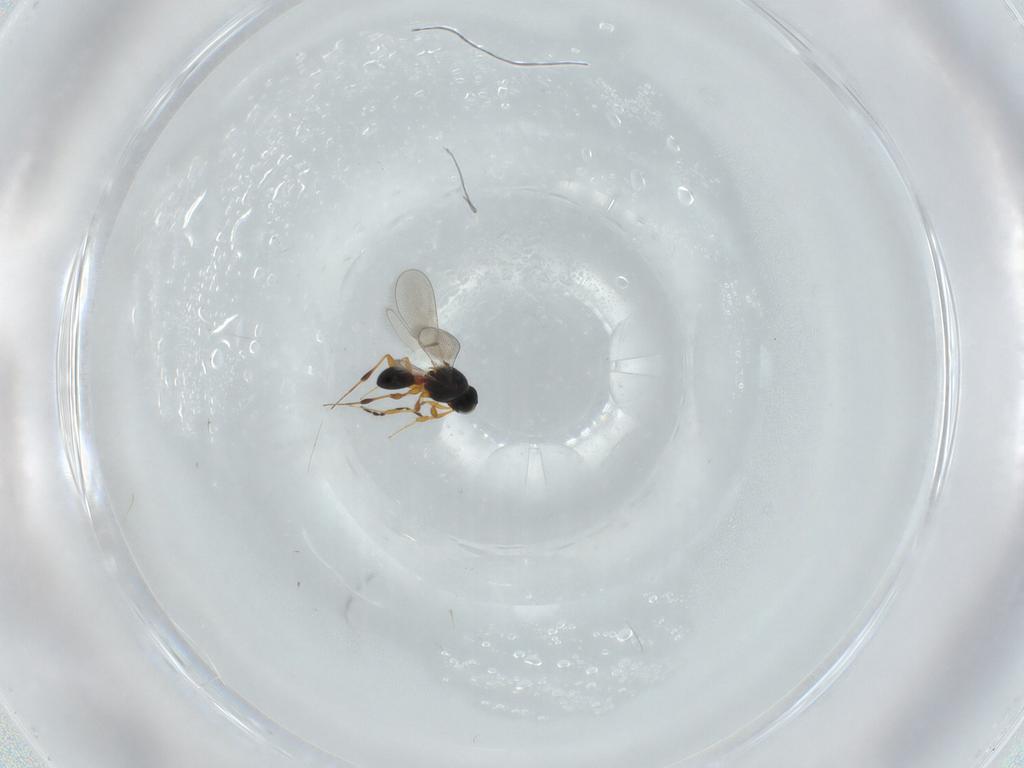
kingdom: Animalia
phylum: Arthropoda
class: Insecta
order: Hymenoptera
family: Platygastridae
